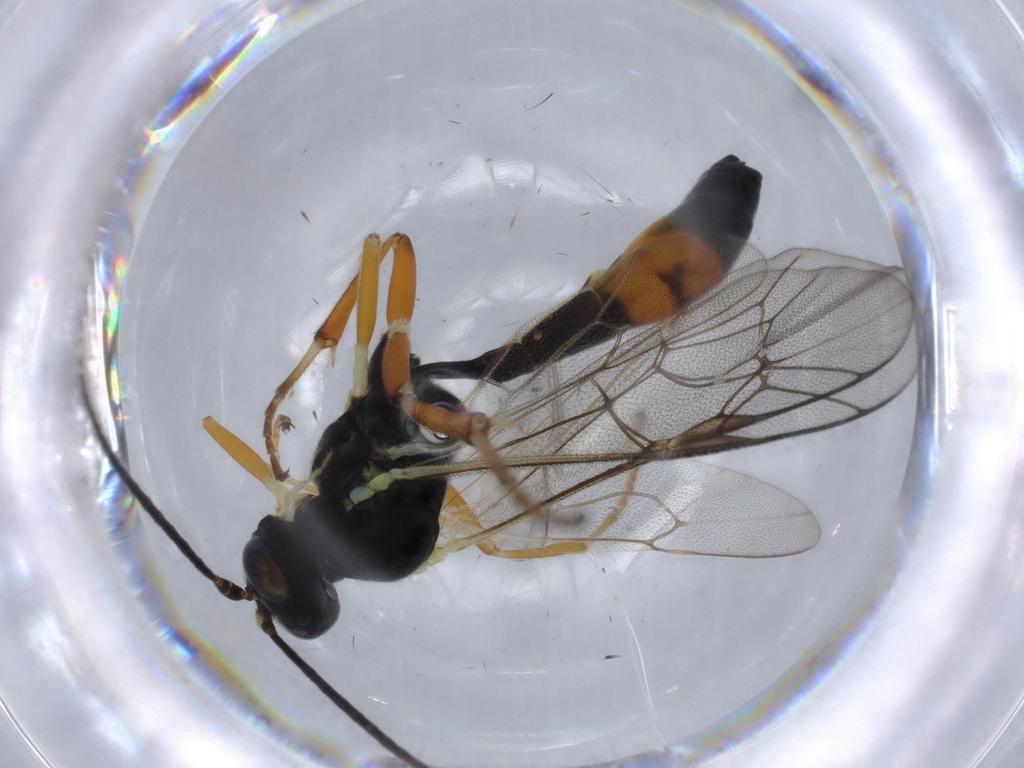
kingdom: Animalia
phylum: Arthropoda
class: Insecta
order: Hymenoptera
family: Ichneumonidae
